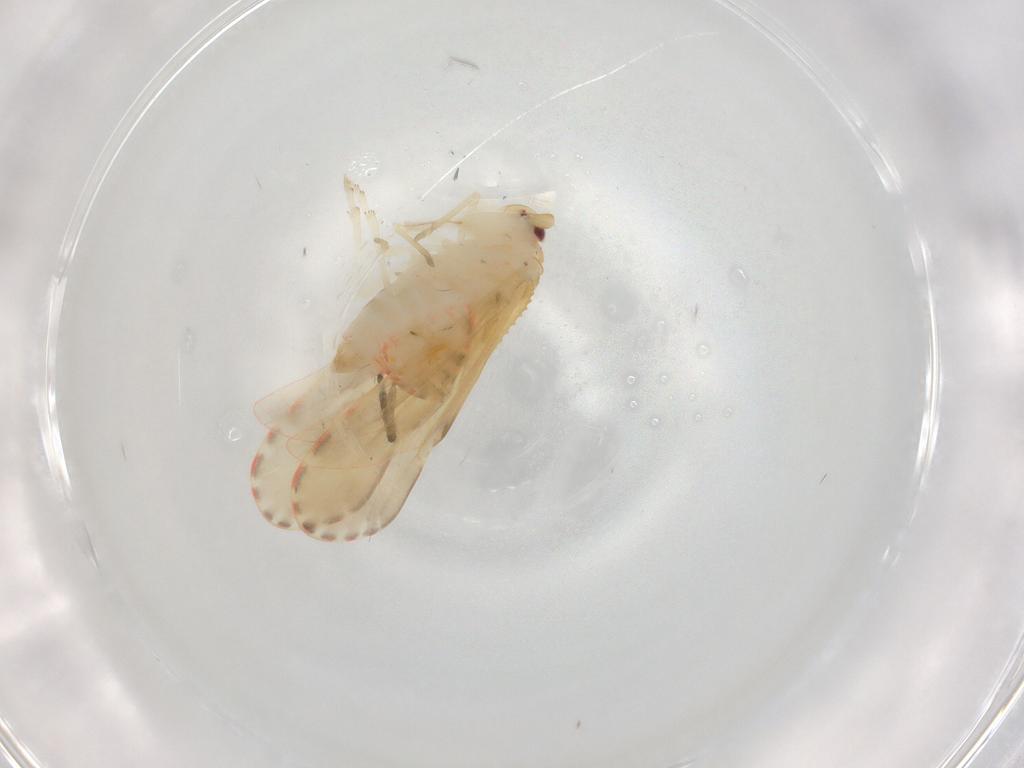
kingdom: Animalia
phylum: Arthropoda
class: Insecta
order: Hemiptera
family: Derbidae
